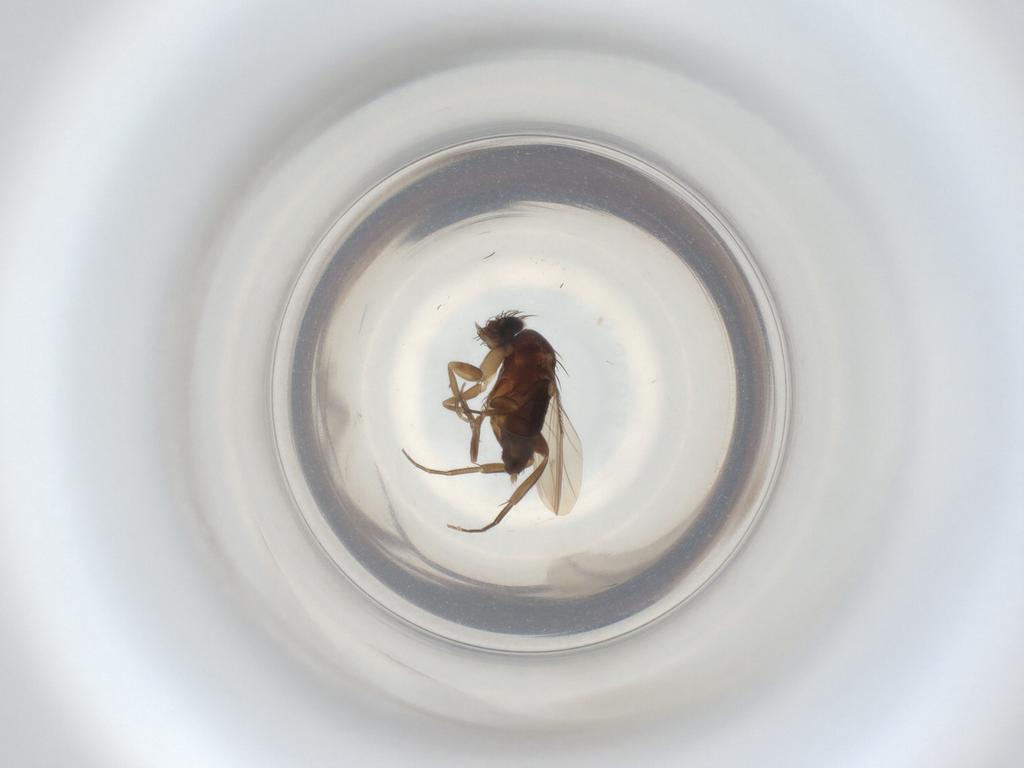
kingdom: Animalia
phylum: Arthropoda
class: Insecta
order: Diptera
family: Phoridae
